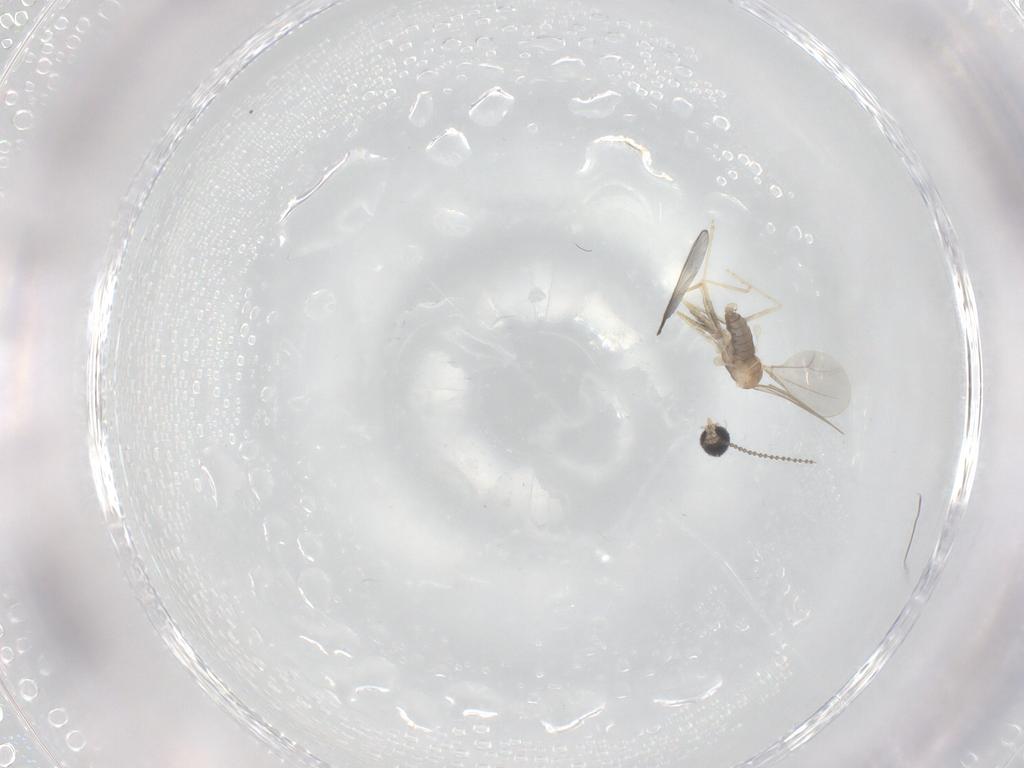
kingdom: Animalia
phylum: Arthropoda
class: Insecta
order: Diptera
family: Cecidomyiidae
